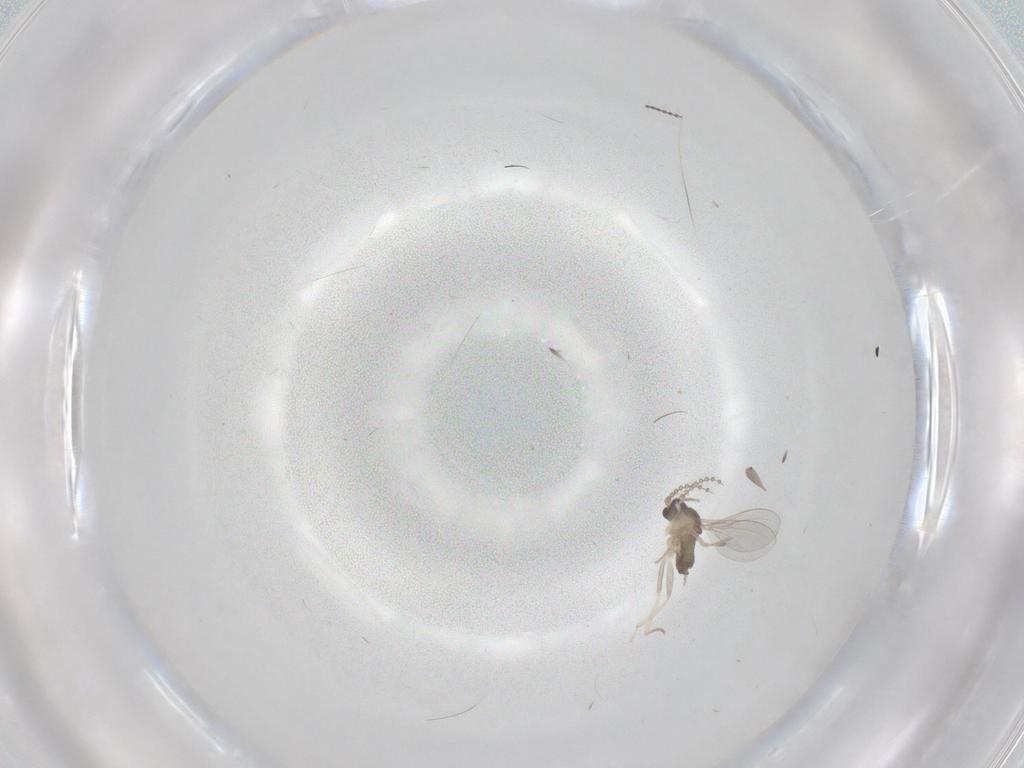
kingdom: Animalia
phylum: Arthropoda
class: Insecta
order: Diptera
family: Cecidomyiidae
